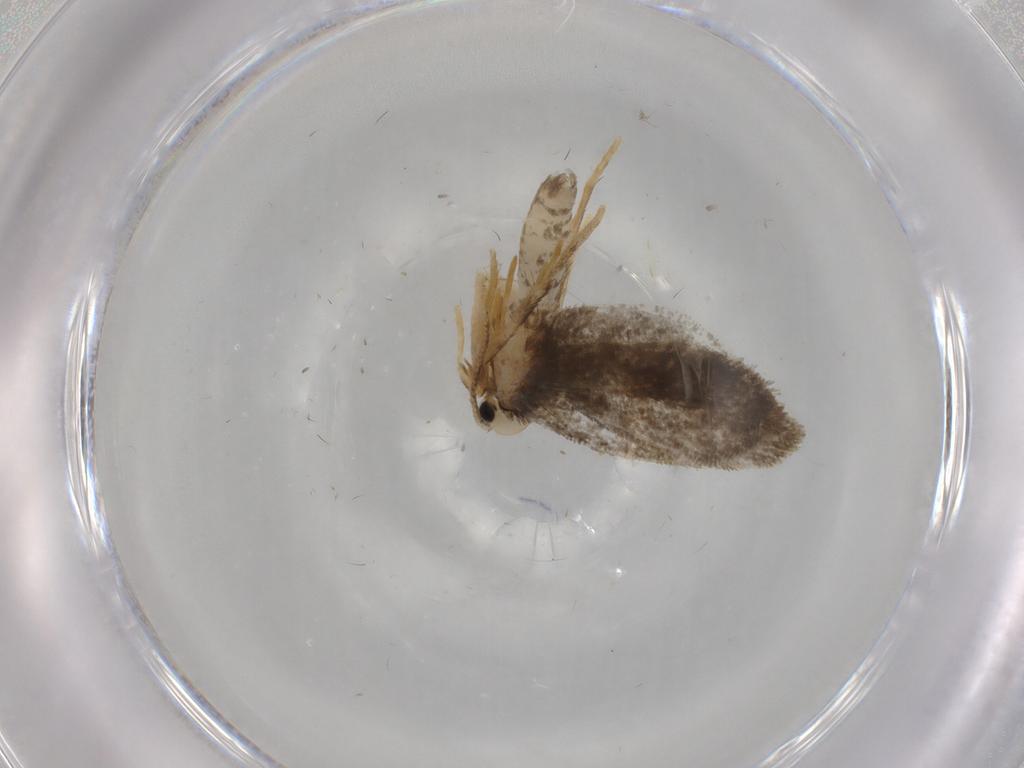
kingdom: Animalia
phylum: Arthropoda
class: Insecta
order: Lepidoptera
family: Psychidae
